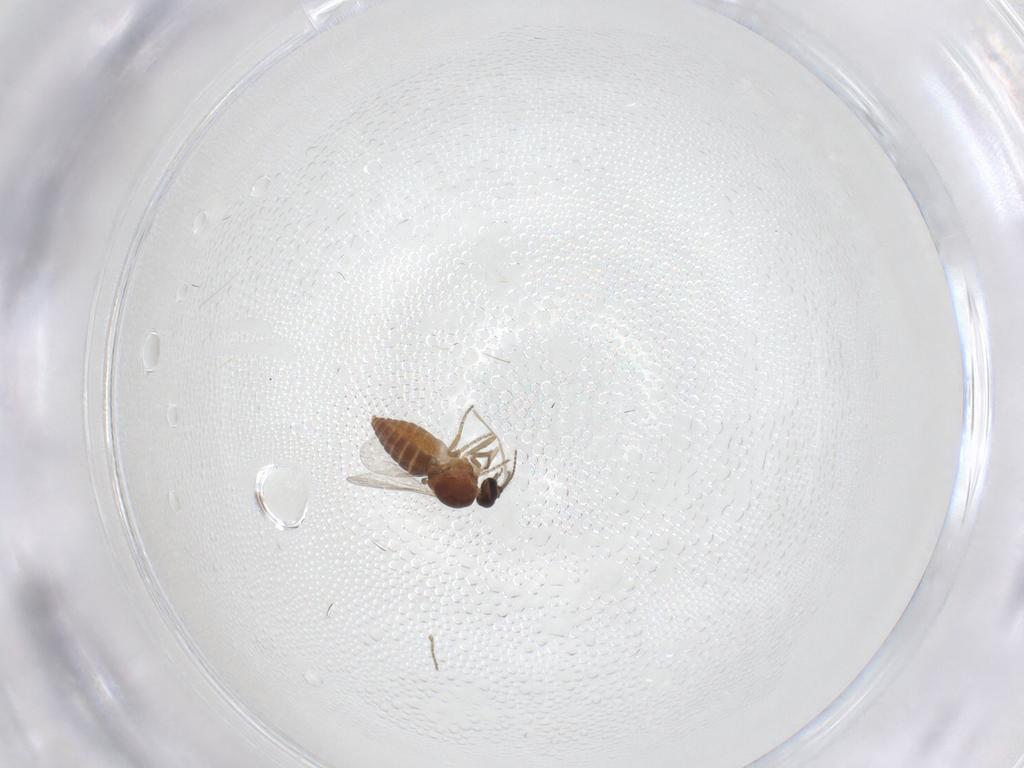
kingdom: Animalia
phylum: Arthropoda
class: Insecta
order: Diptera
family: Ceratopogonidae
